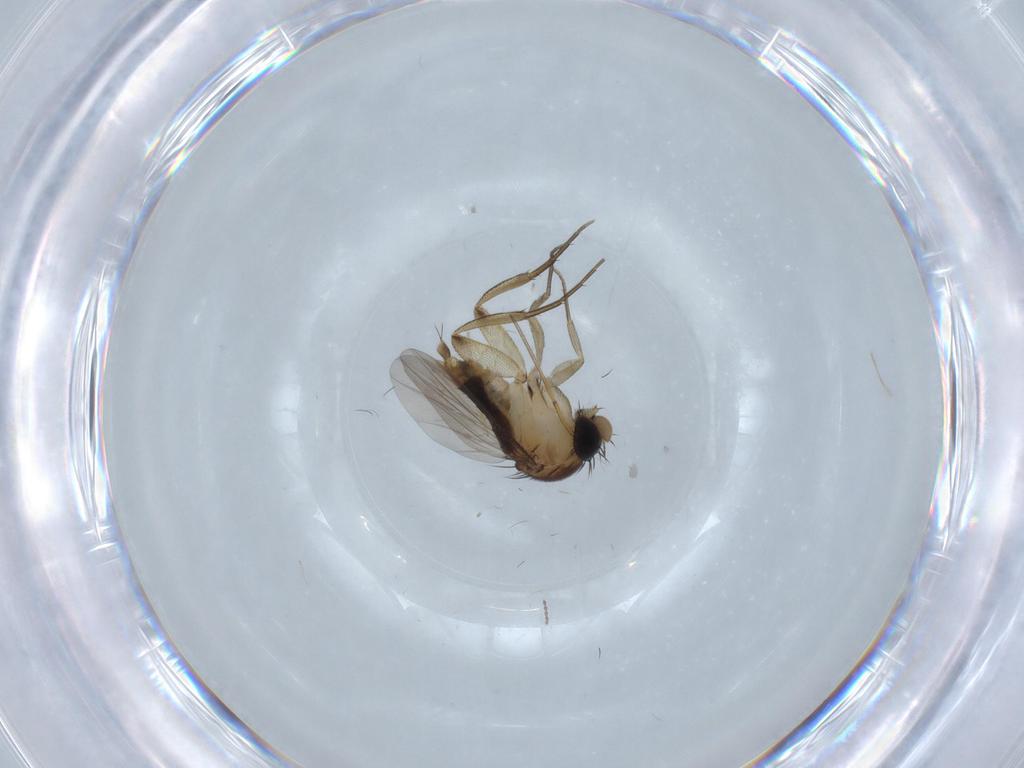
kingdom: Animalia
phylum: Arthropoda
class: Insecta
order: Diptera
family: Cecidomyiidae
